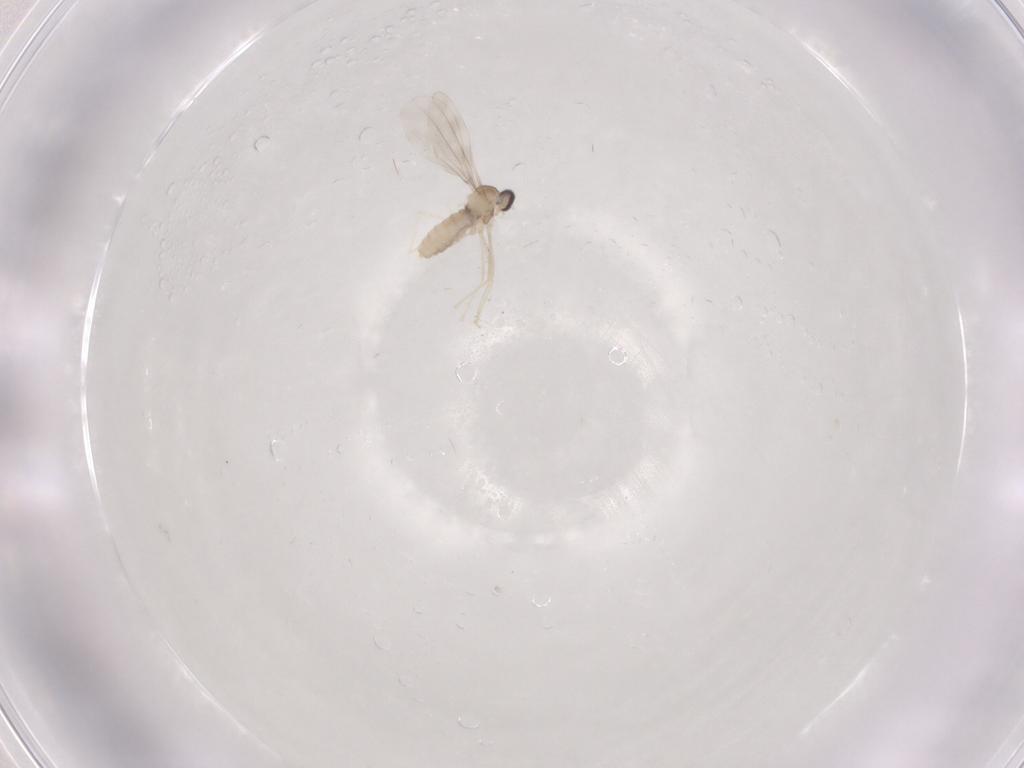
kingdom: Animalia
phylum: Arthropoda
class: Insecta
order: Diptera
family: Cecidomyiidae
